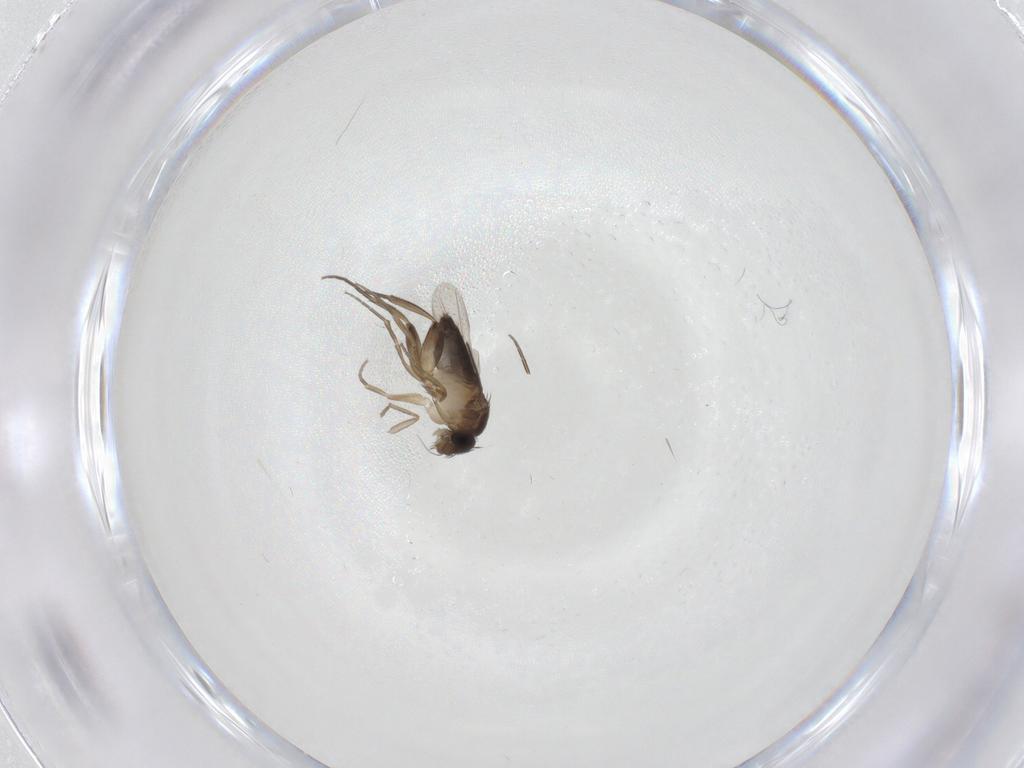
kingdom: Animalia
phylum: Arthropoda
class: Insecta
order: Diptera
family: Phoridae
